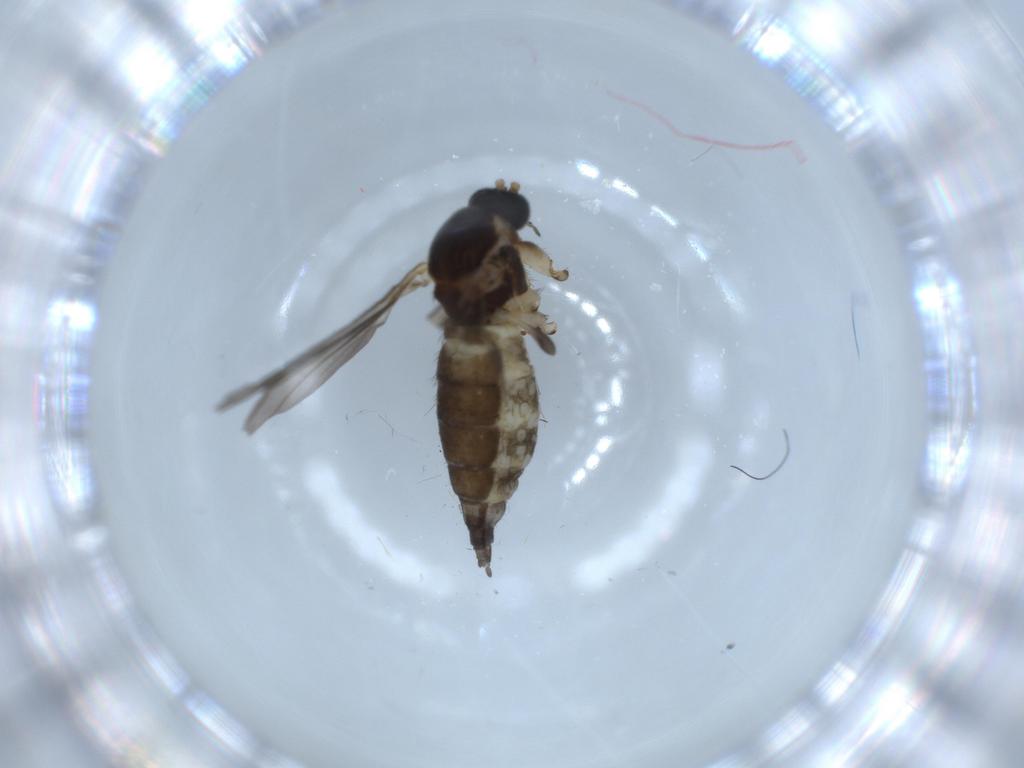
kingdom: Animalia
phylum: Arthropoda
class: Insecta
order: Diptera
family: Sciaridae
